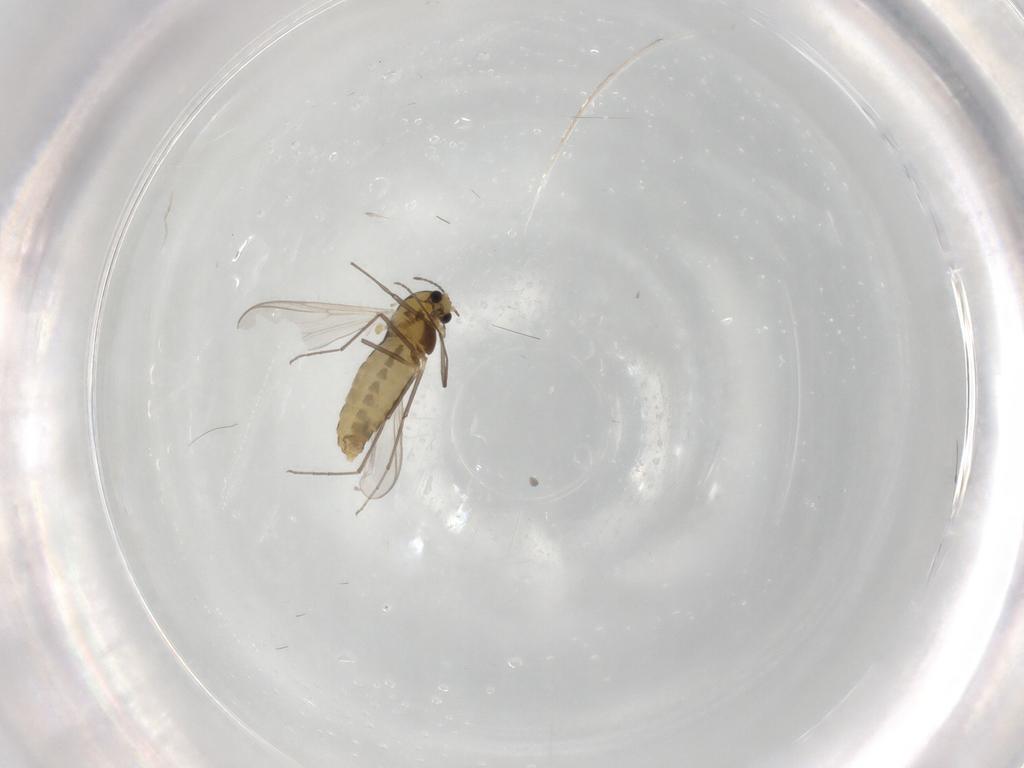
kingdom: Animalia
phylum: Arthropoda
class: Insecta
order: Diptera
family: Chironomidae
